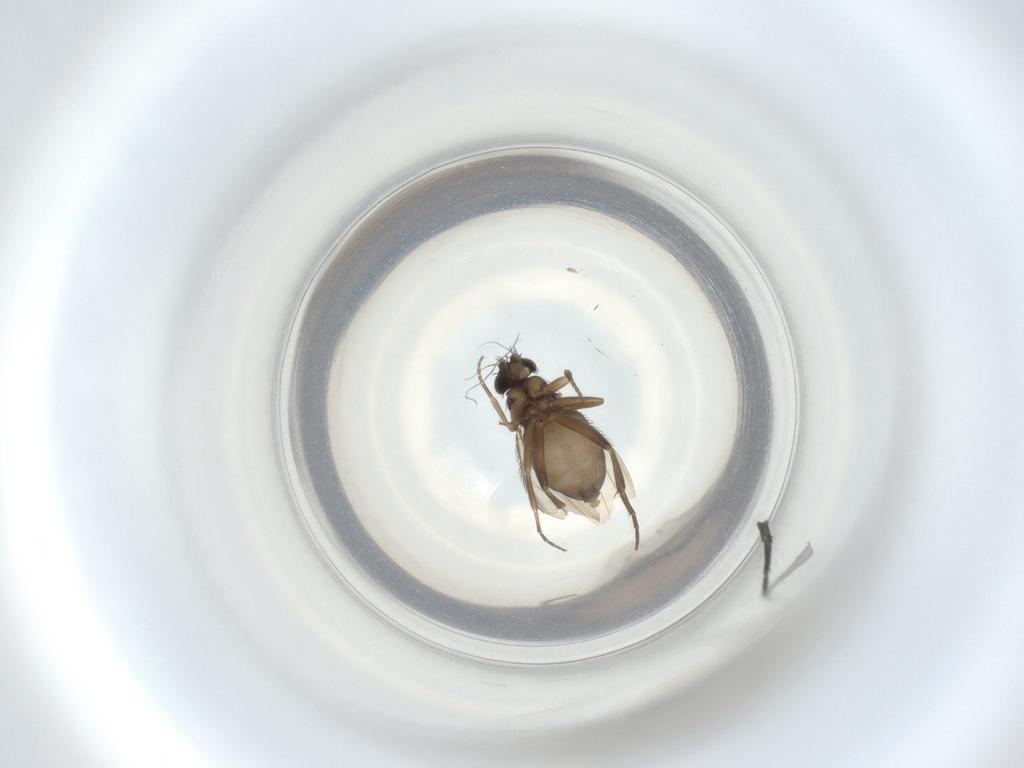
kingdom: Animalia
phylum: Arthropoda
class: Insecta
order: Diptera
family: Phoridae
